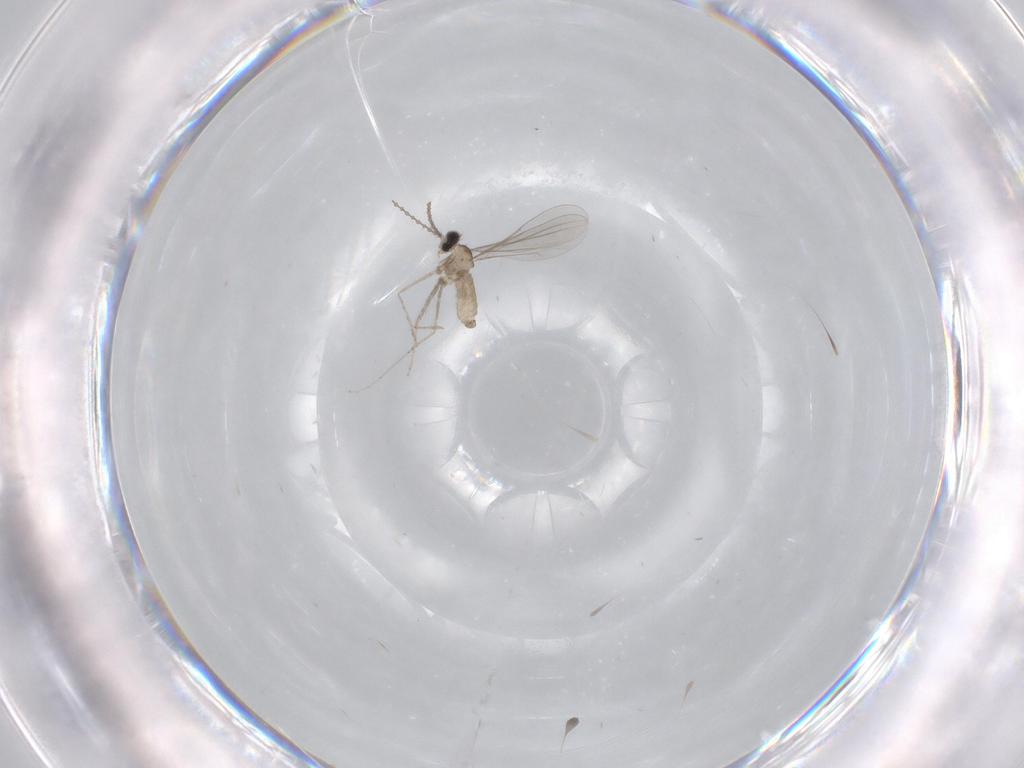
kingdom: Animalia
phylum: Arthropoda
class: Insecta
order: Diptera
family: Cecidomyiidae
